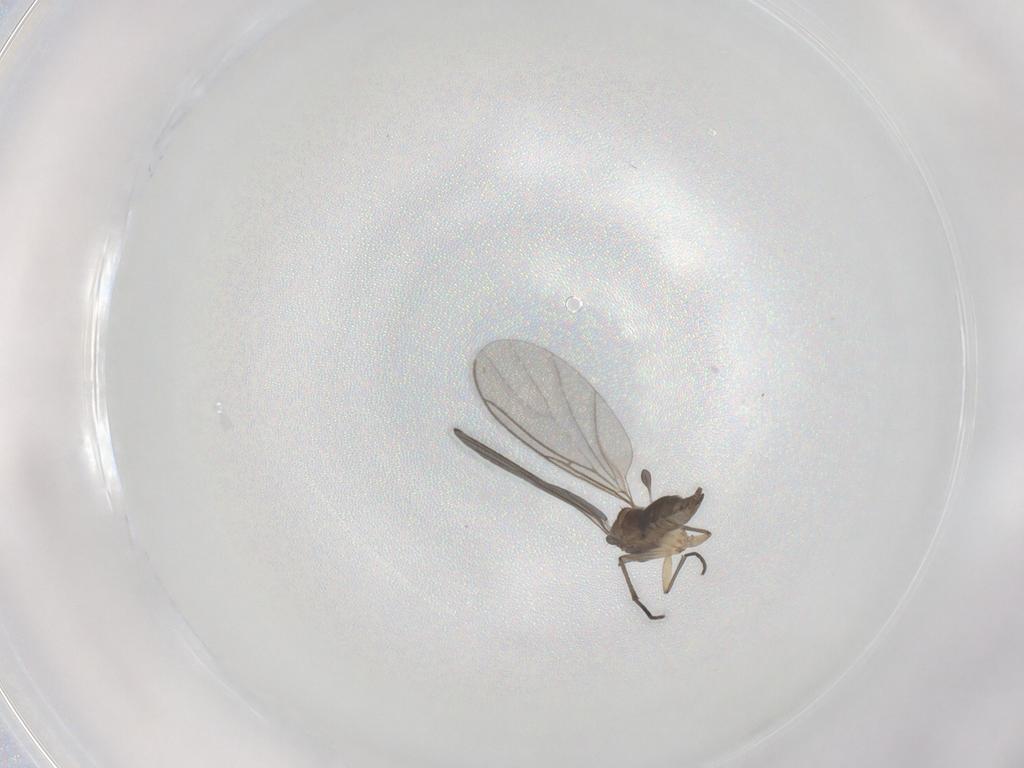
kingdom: Animalia
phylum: Arthropoda
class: Insecta
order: Diptera
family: Sciaridae
